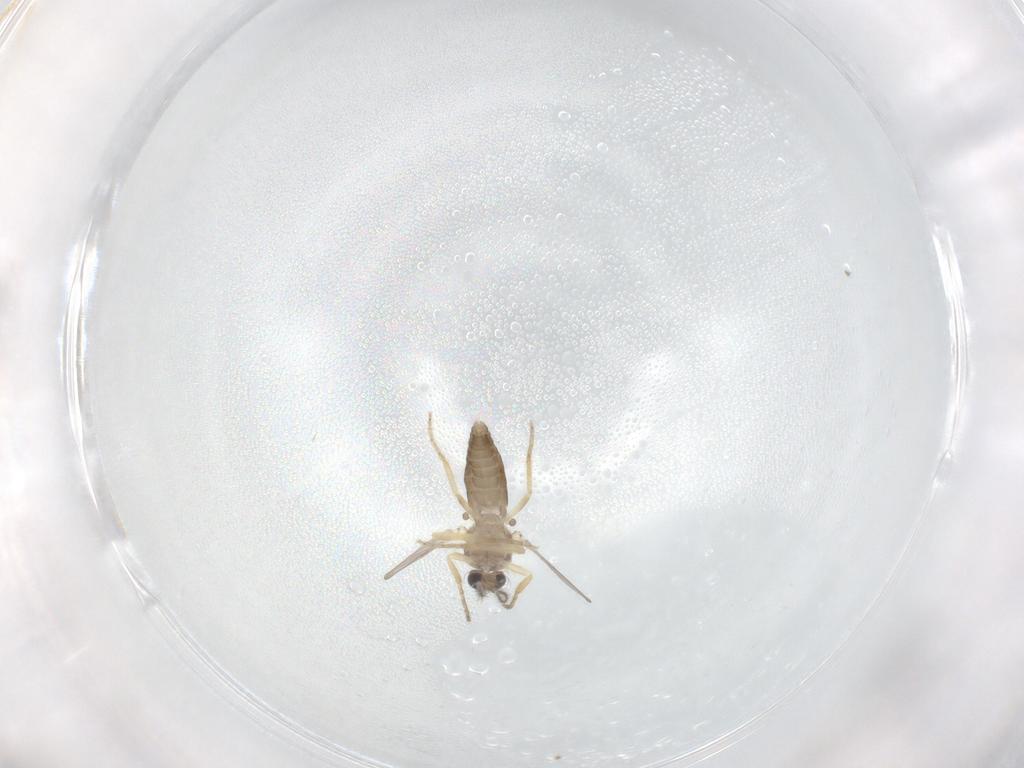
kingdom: Animalia
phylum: Arthropoda
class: Insecta
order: Diptera
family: Ceratopogonidae
